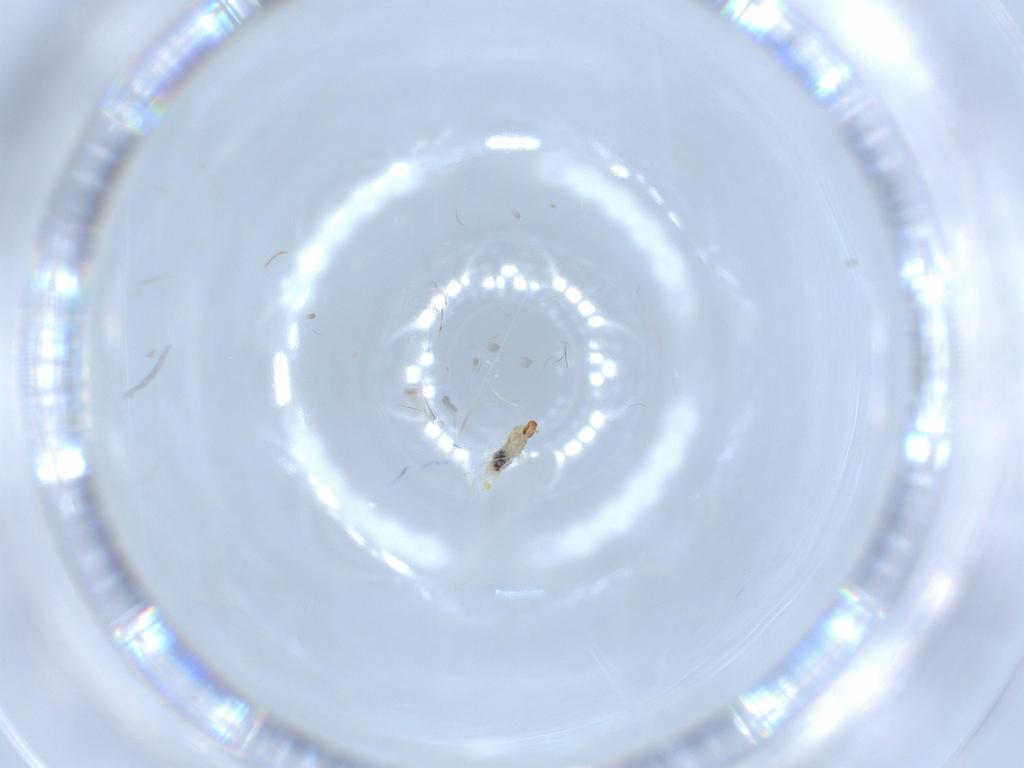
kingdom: Animalia
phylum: Arthropoda
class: Insecta
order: Diptera
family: Cecidomyiidae
